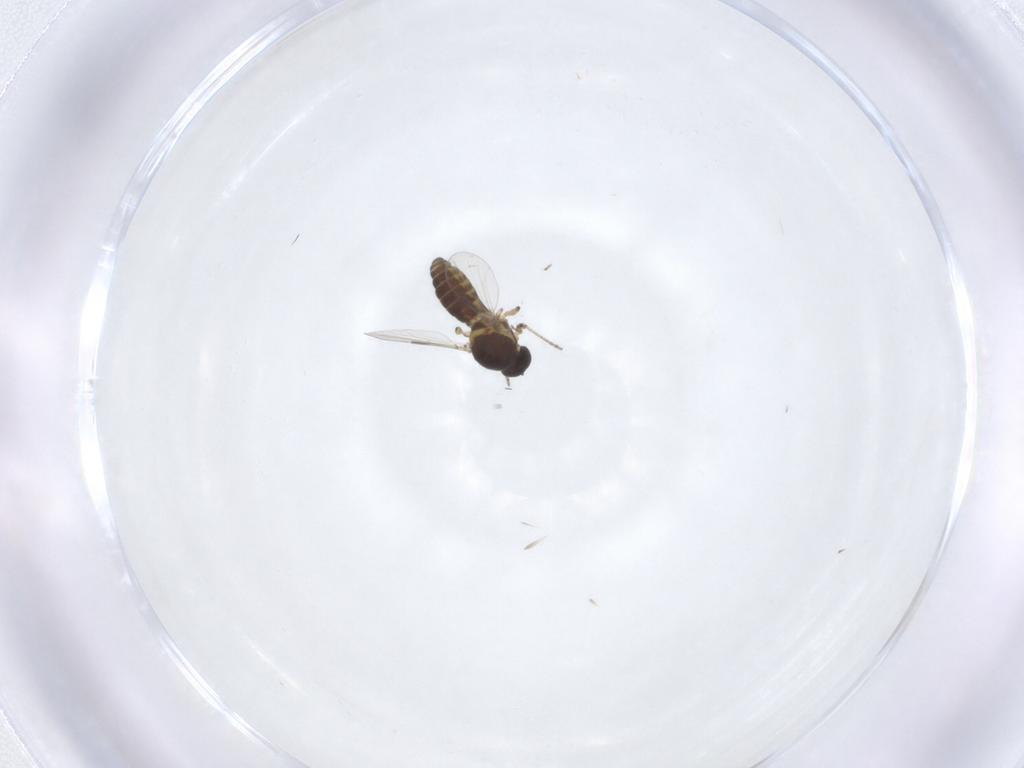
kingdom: Animalia
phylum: Arthropoda
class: Insecta
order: Diptera
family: Ceratopogonidae
